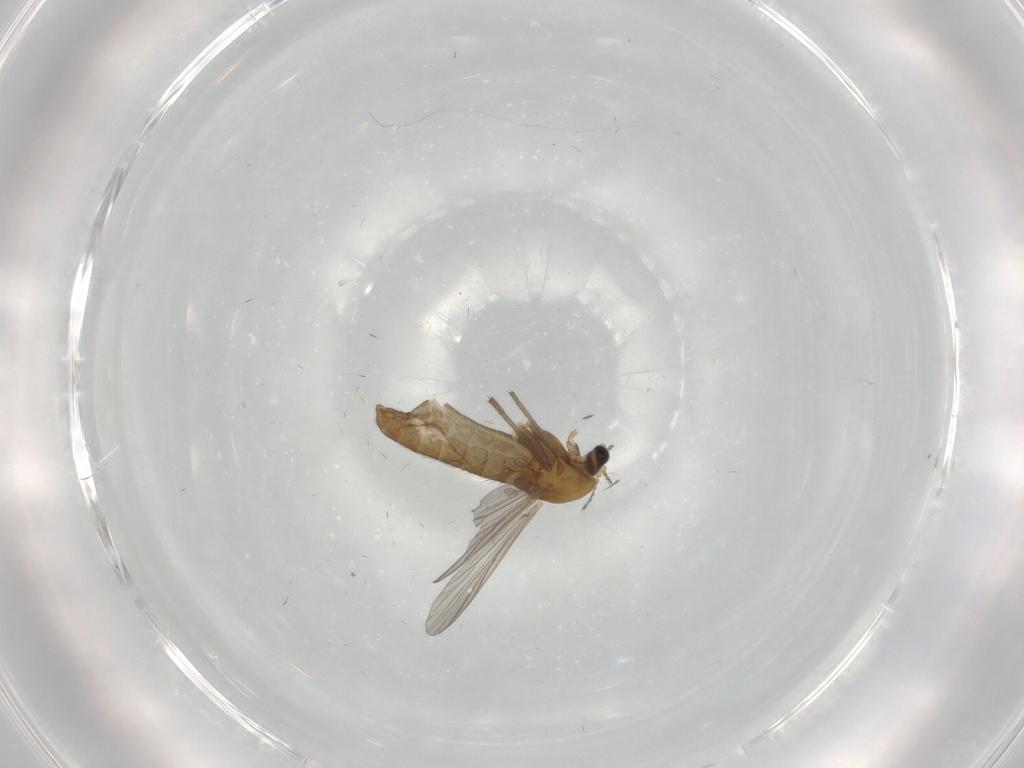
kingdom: Animalia
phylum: Arthropoda
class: Insecta
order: Diptera
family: Chironomidae
